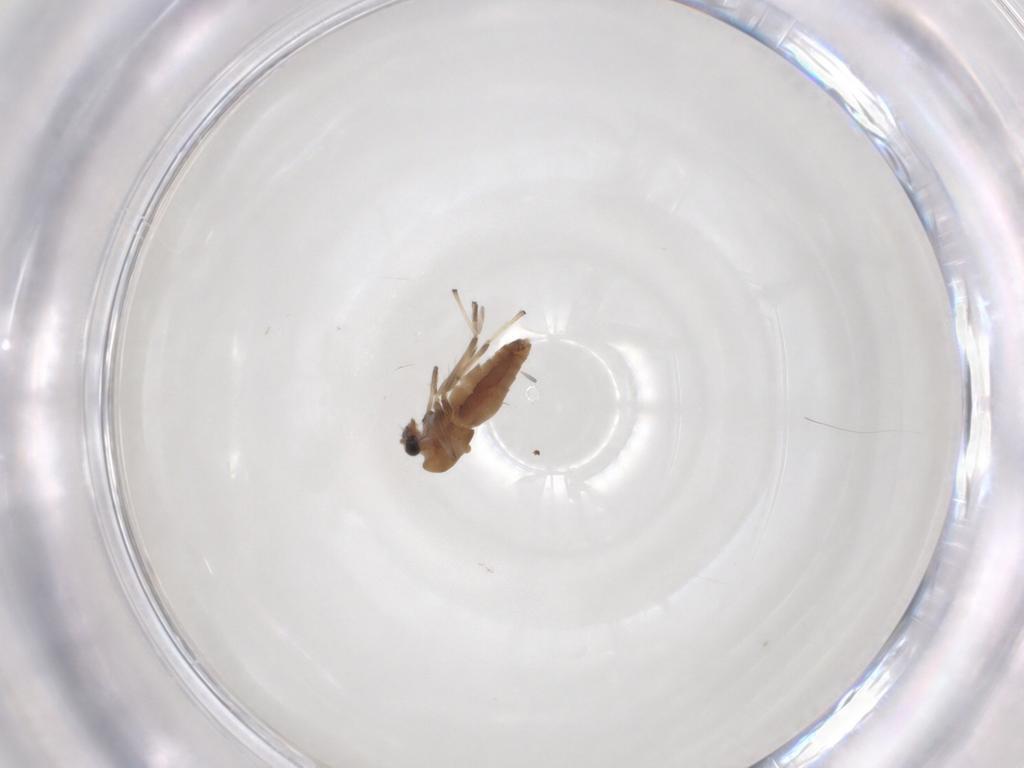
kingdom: Animalia
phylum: Arthropoda
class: Insecta
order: Diptera
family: Chironomidae
